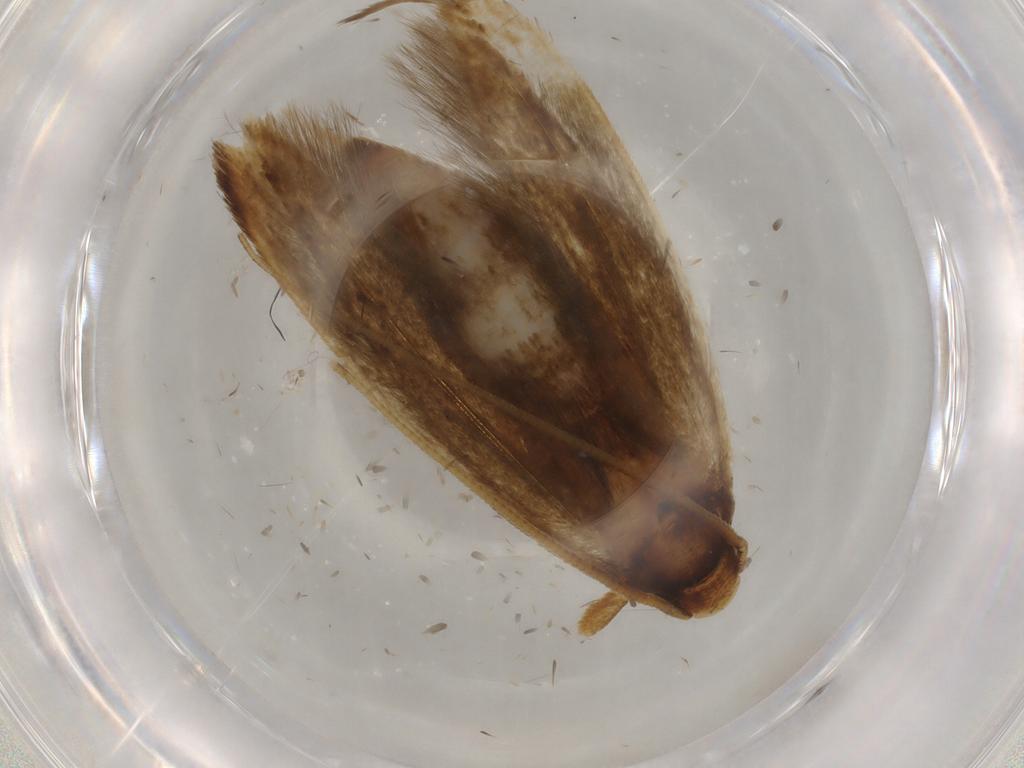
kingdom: Animalia
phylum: Arthropoda
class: Insecta
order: Lepidoptera
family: Tineidae
